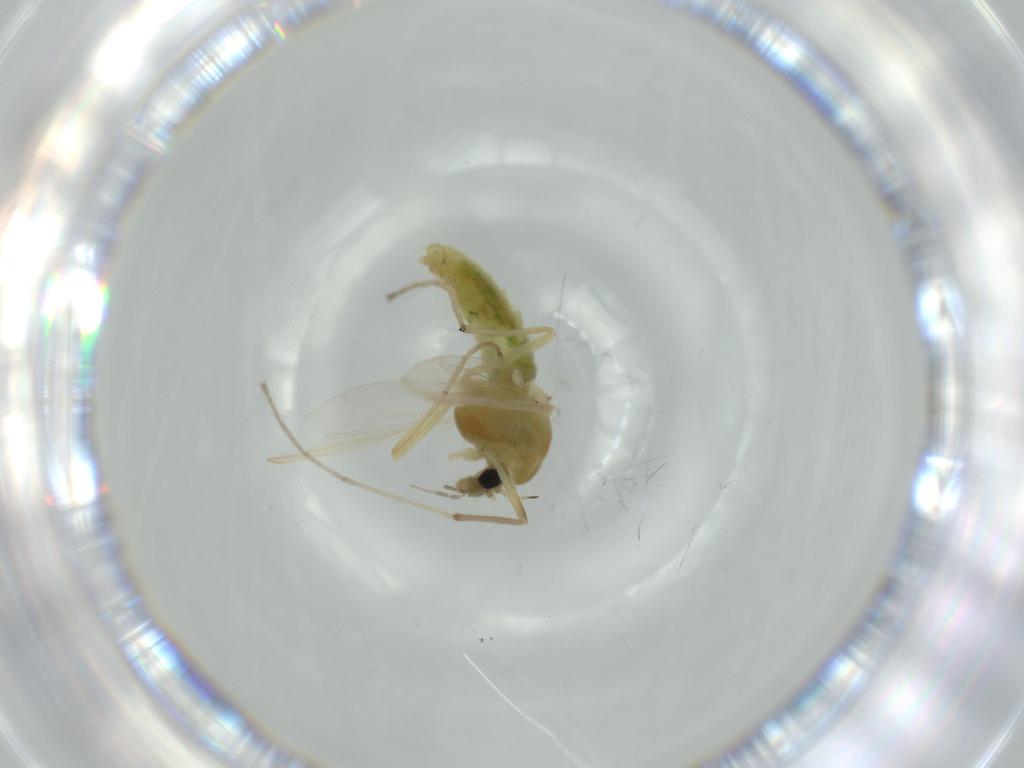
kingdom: Animalia
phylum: Arthropoda
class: Insecta
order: Diptera
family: Chironomidae
